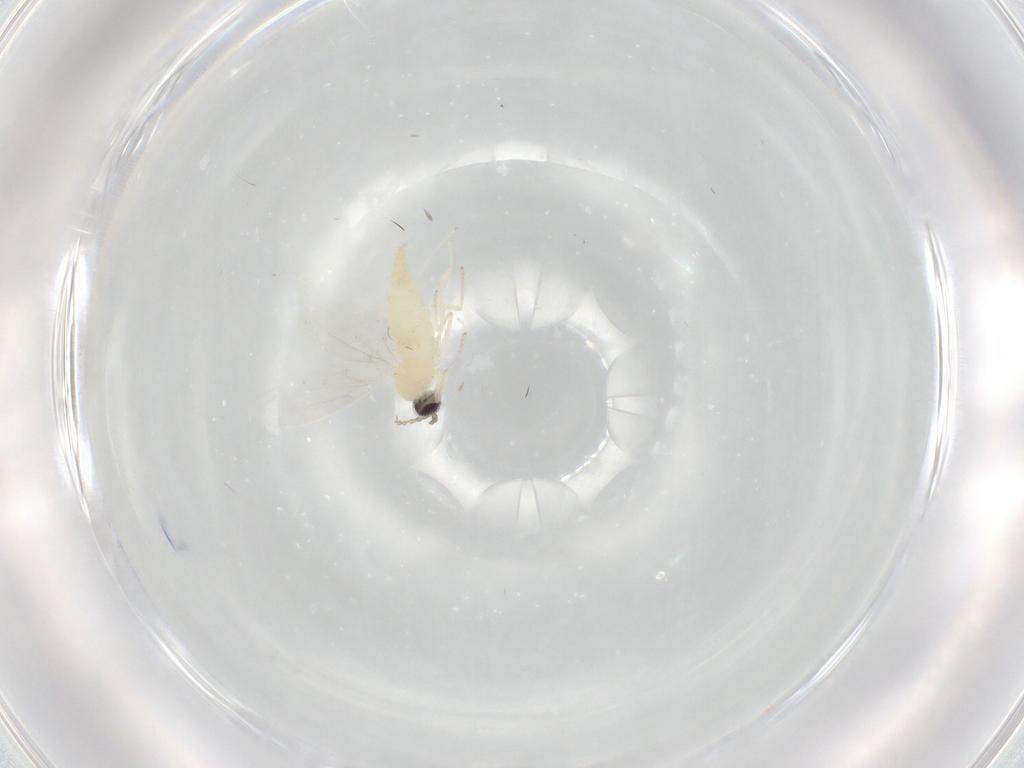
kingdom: Animalia
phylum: Arthropoda
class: Insecta
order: Diptera
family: Cecidomyiidae
